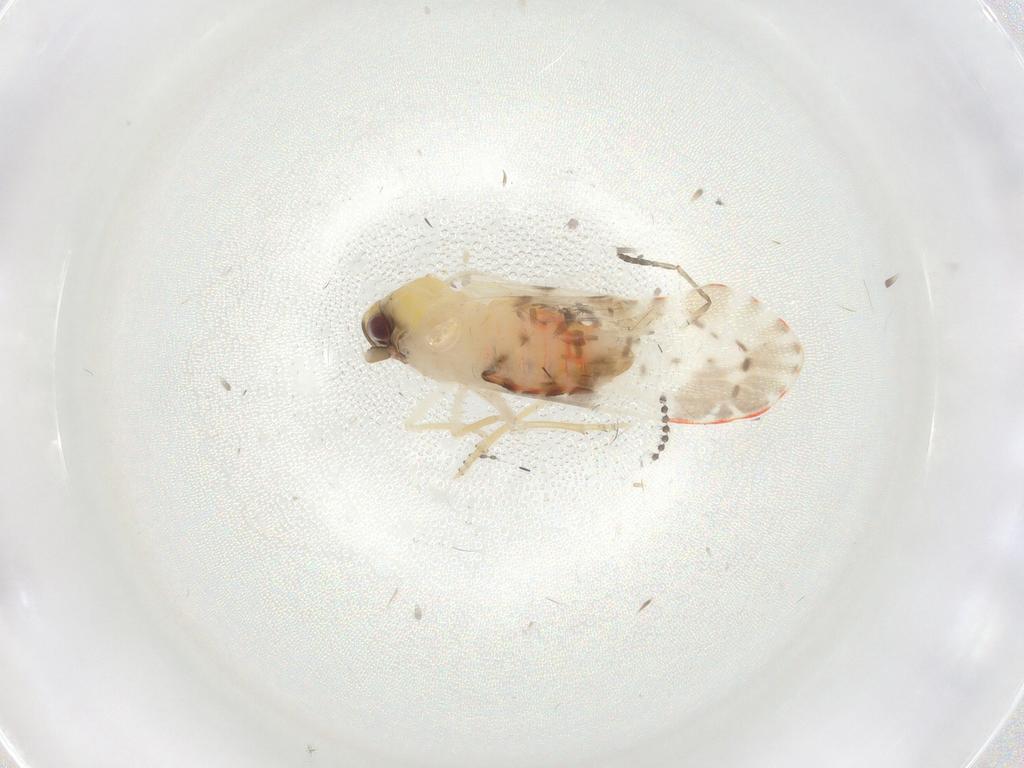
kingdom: Animalia
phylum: Arthropoda
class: Insecta
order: Hemiptera
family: Derbidae
